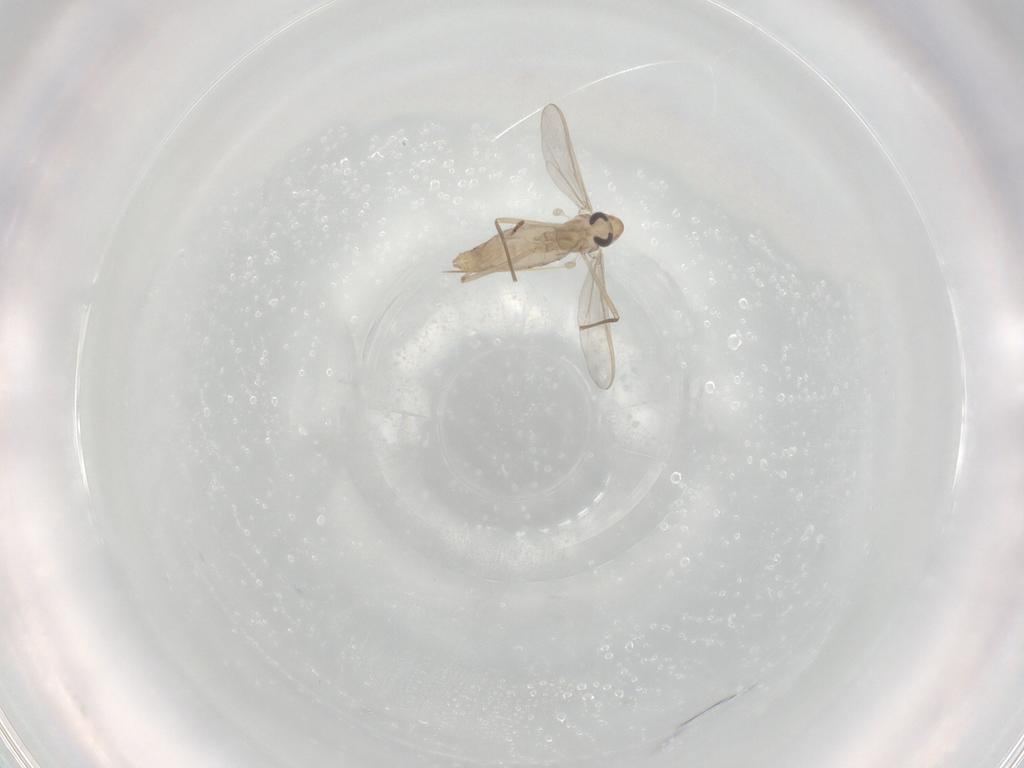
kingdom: Animalia
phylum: Arthropoda
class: Insecta
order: Diptera
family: Chironomidae
